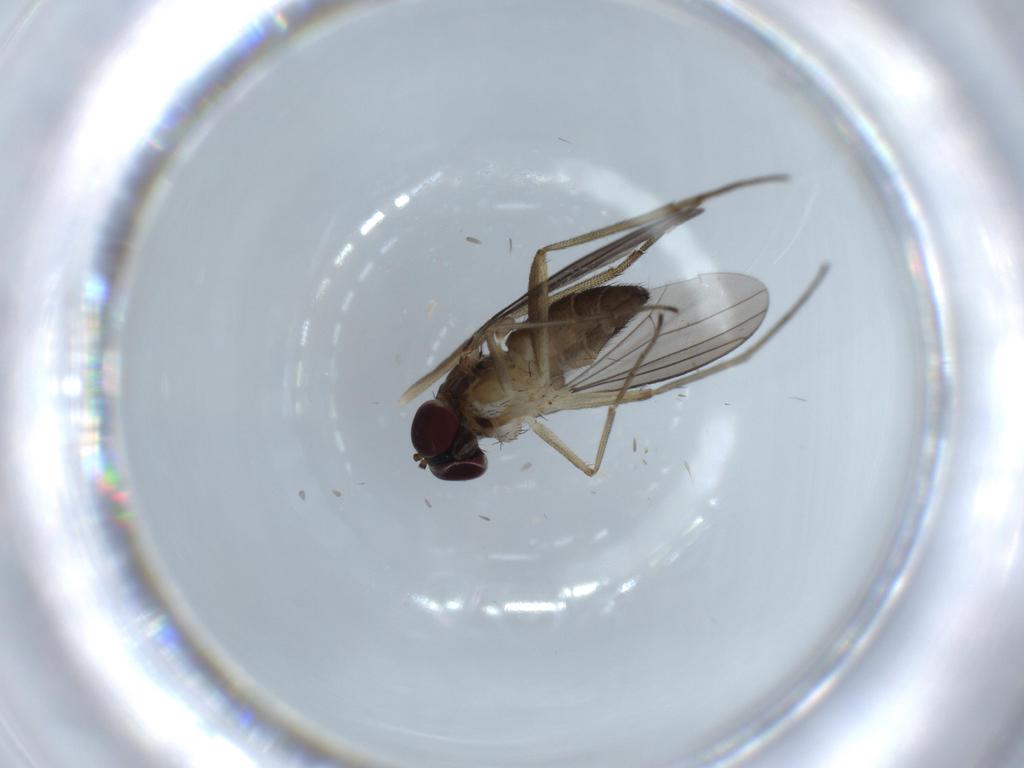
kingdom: Animalia
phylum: Arthropoda
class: Insecta
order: Diptera
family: Dolichopodidae
